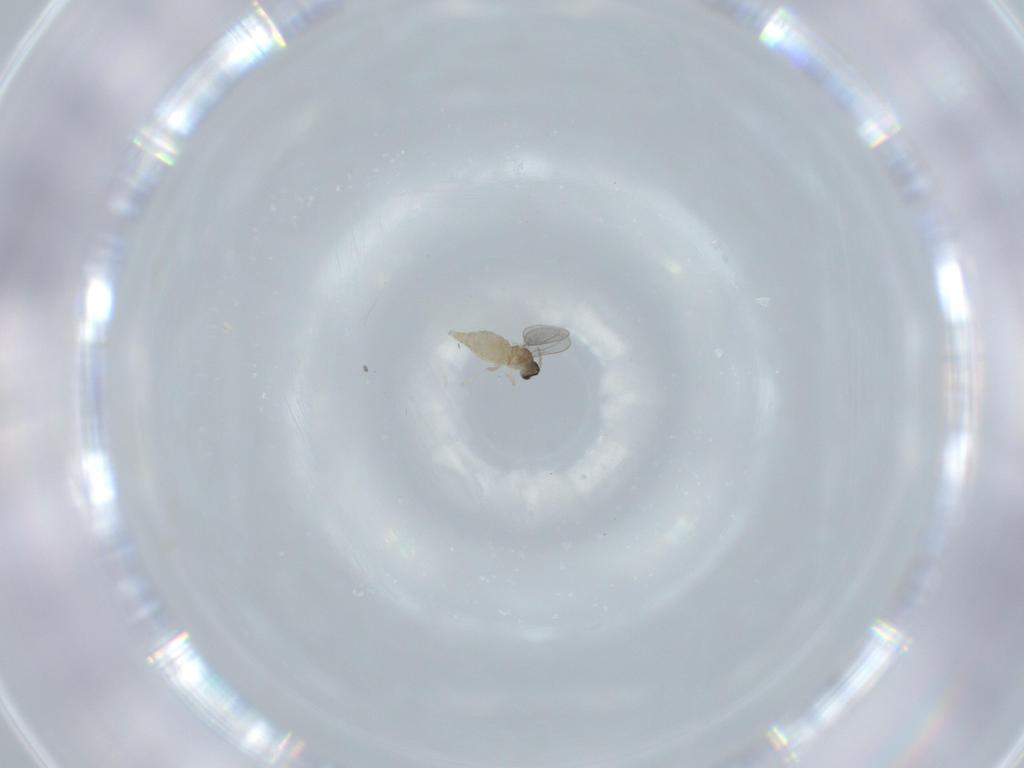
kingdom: Animalia
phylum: Arthropoda
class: Insecta
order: Diptera
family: Cecidomyiidae
